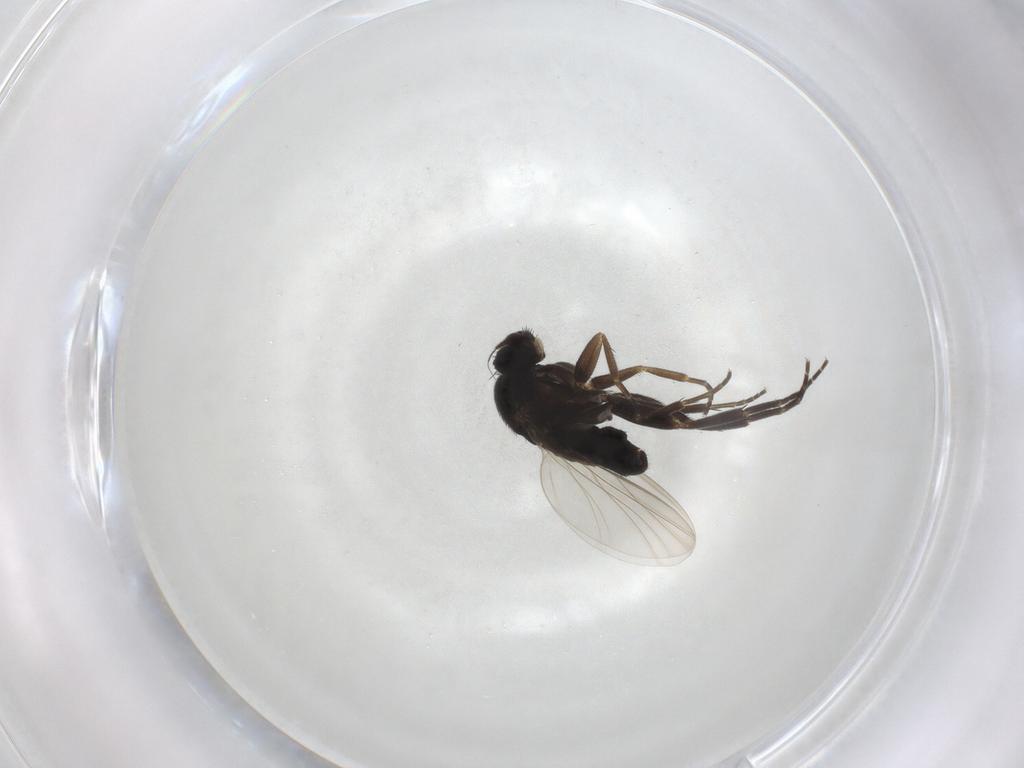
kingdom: Animalia
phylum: Arthropoda
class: Insecta
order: Diptera
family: Phoridae
